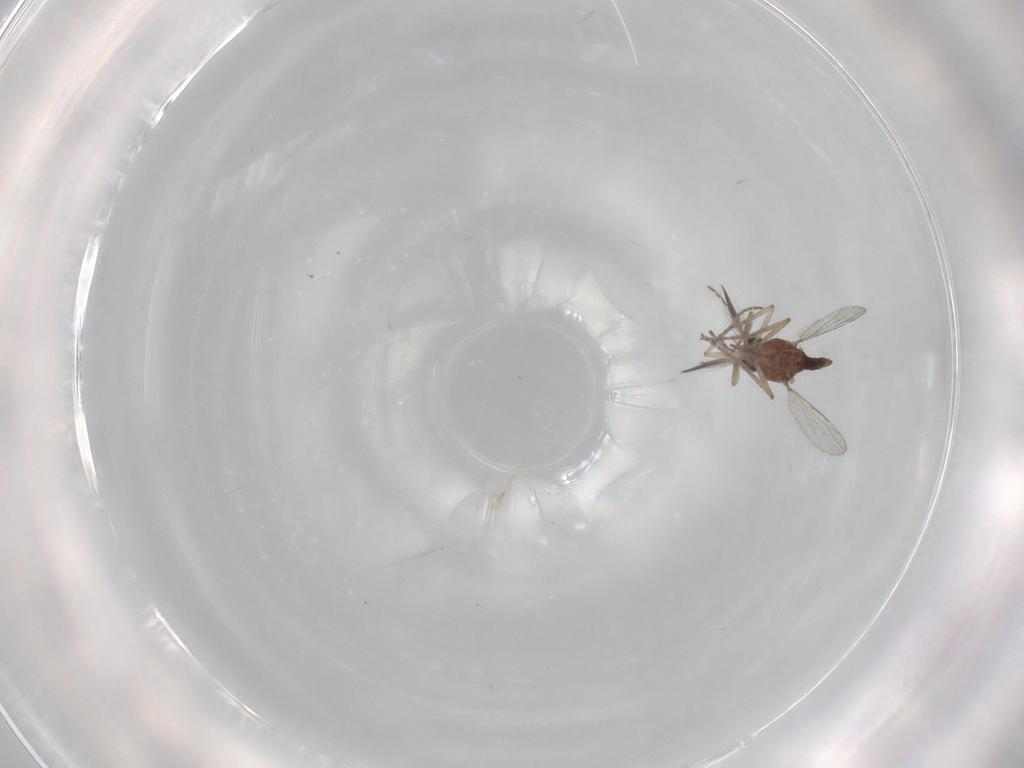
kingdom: Animalia
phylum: Arthropoda
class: Insecta
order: Diptera
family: Ceratopogonidae
